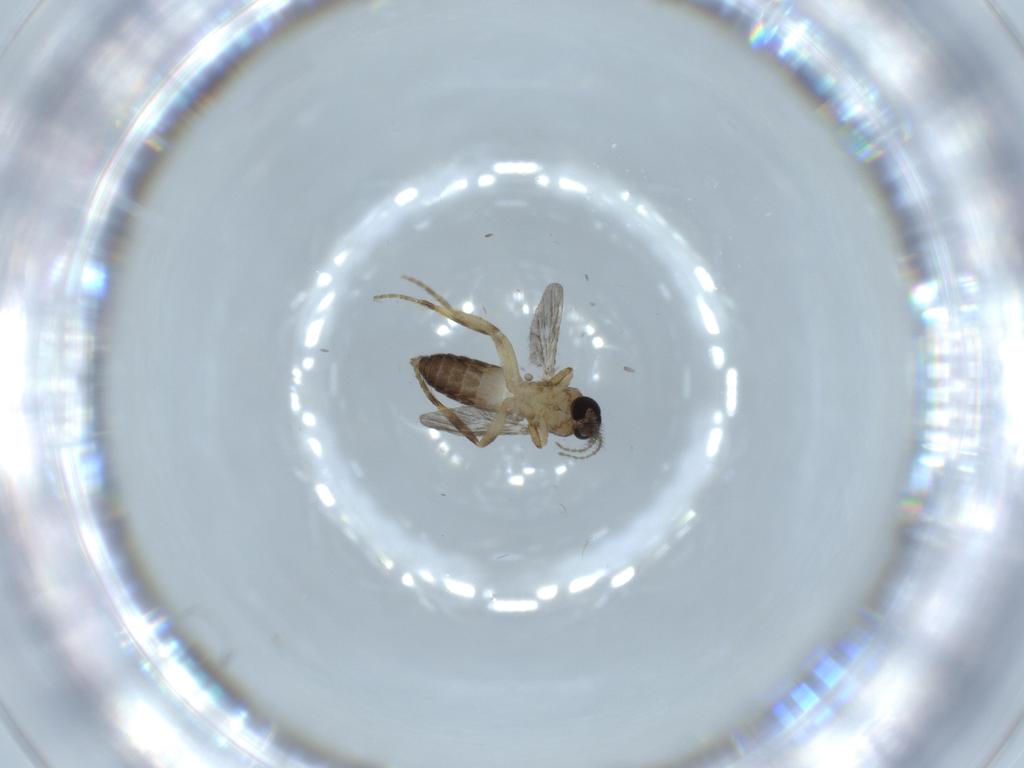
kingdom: Animalia
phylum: Arthropoda
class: Insecta
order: Diptera
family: Ceratopogonidae
